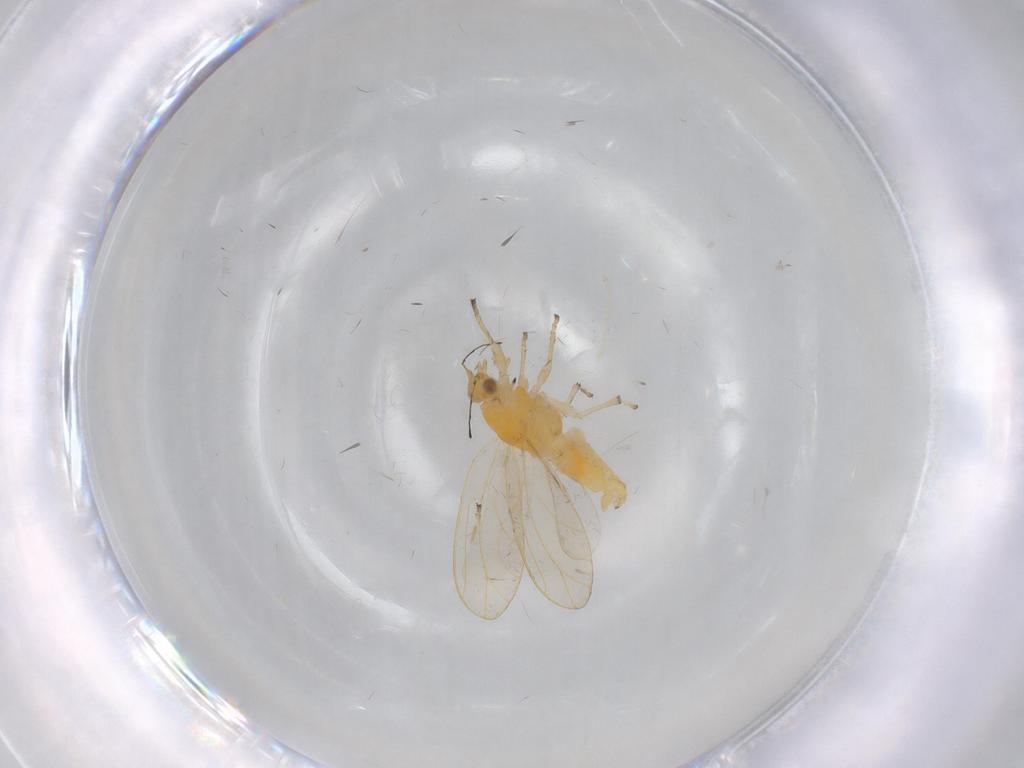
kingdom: Animalia
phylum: Arthropoda
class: Insecta
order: Hemiptera
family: Triozidae
